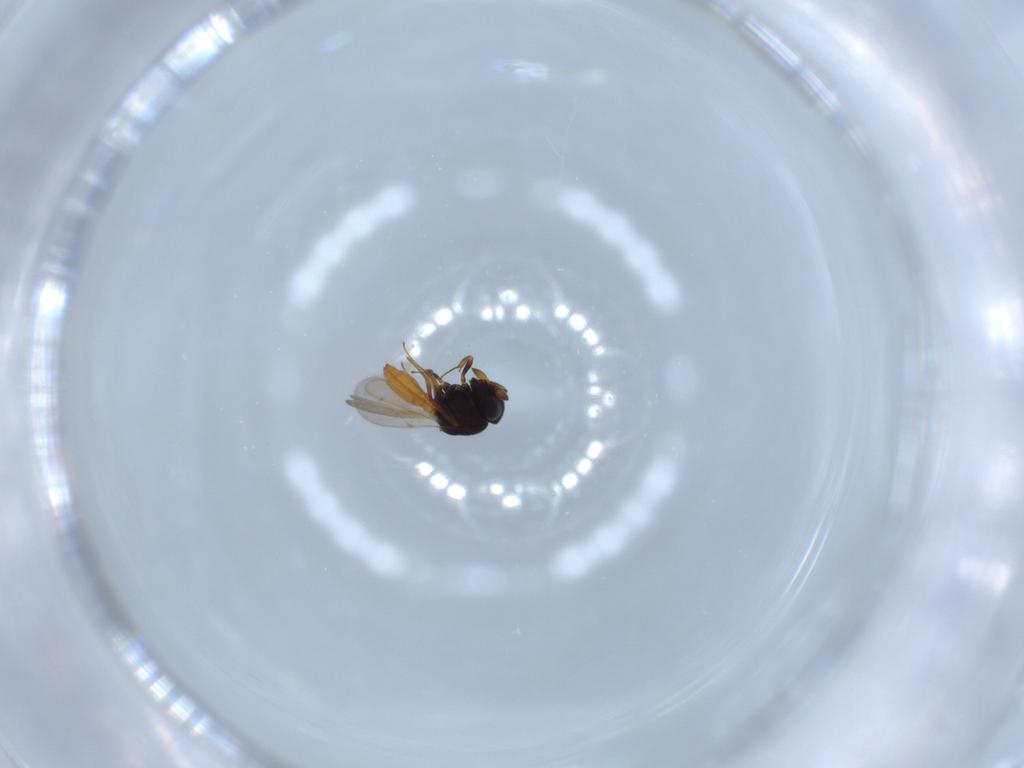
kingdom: Animalia
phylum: Arthropoda
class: Insecta
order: Hymenoptera
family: Scelionidae
